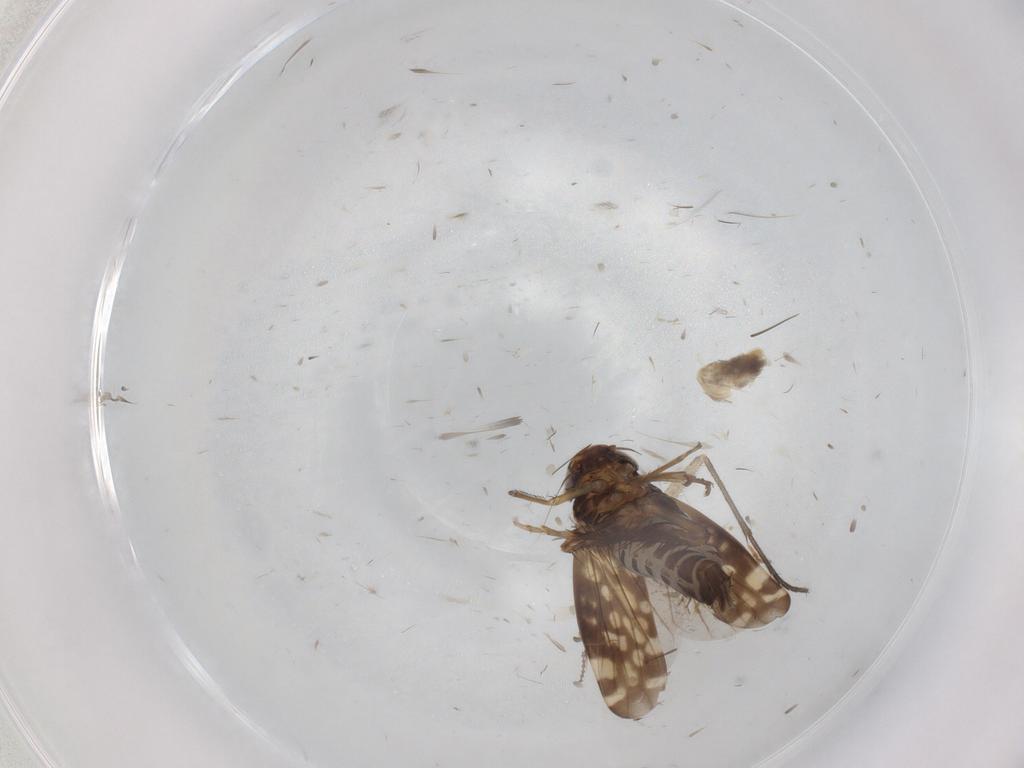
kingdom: Animalia
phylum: Arthropoda
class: Insecta
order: Hemiptera
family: Cicadellidae
